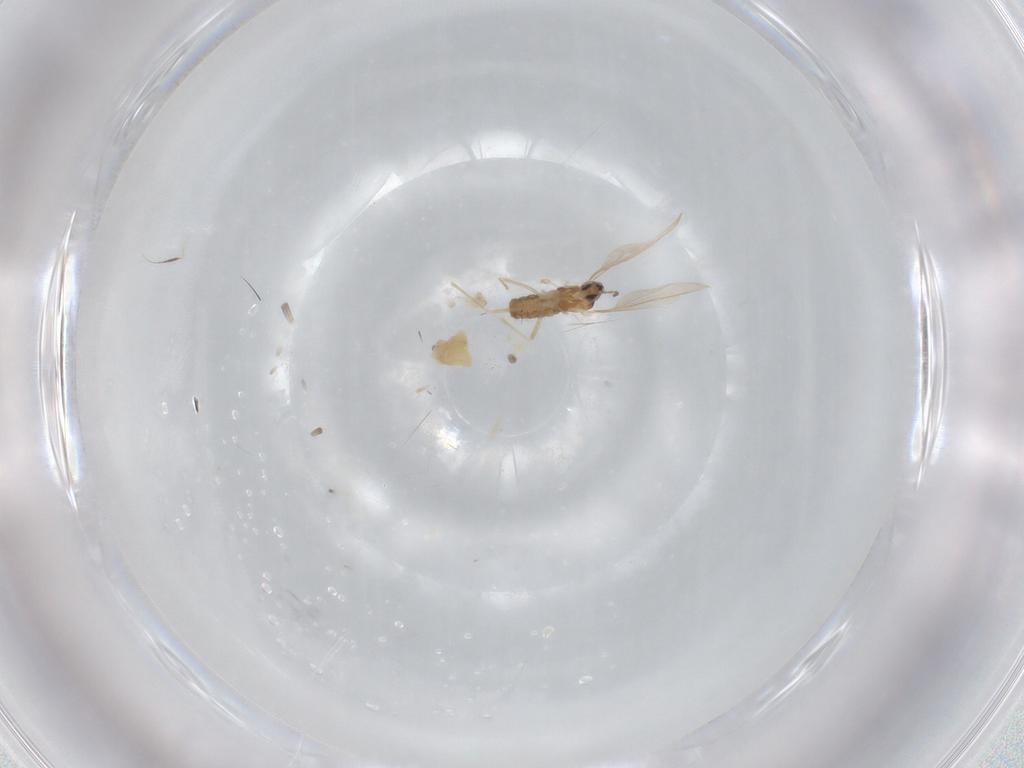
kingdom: Animalia
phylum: Arthropoda
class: Insecta
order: Diptera
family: Cecidomyiidae
